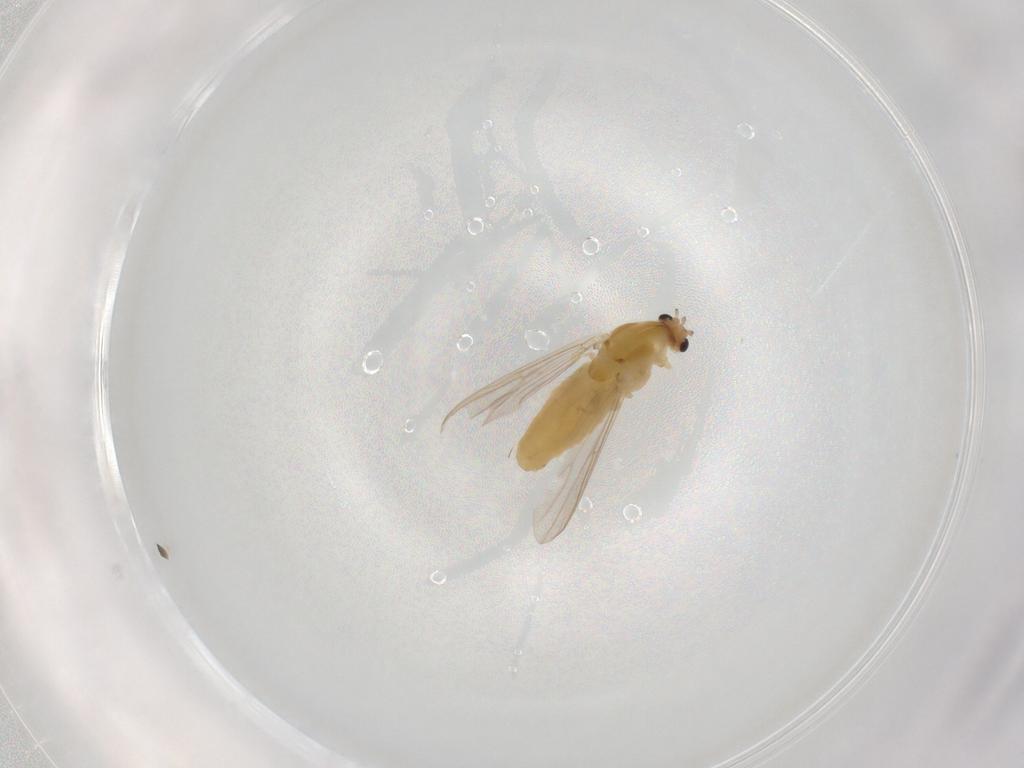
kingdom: Animalia
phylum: Arthropoda
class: Insecta
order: Diptera
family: Chironomidae
